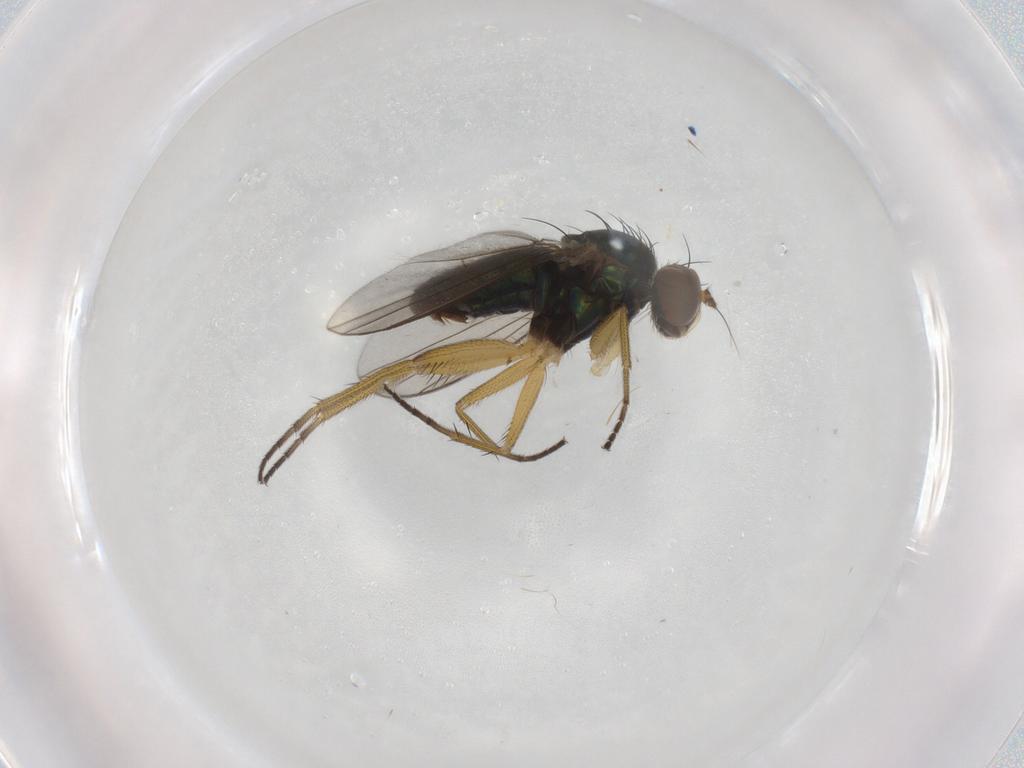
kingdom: Animalia
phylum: Arthropoda
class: Insecta
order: Diptera
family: Dolichopodidae
